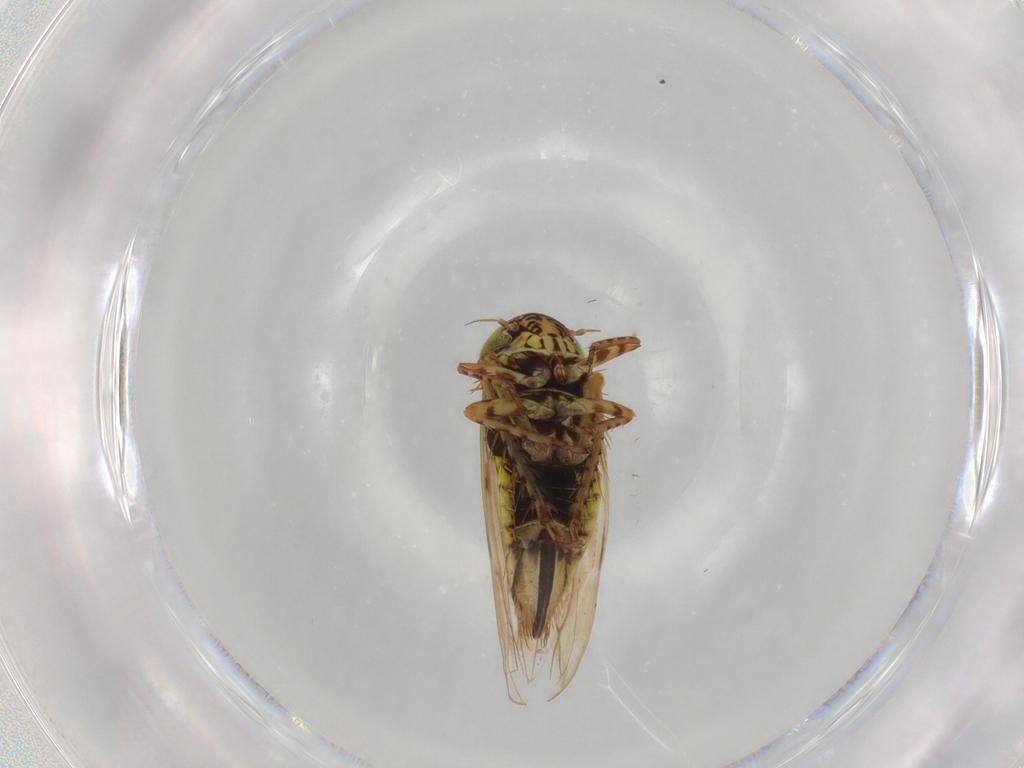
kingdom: Animalia
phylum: Arthropoda
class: Insecta
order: Hemiptera
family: Cicadellidae
